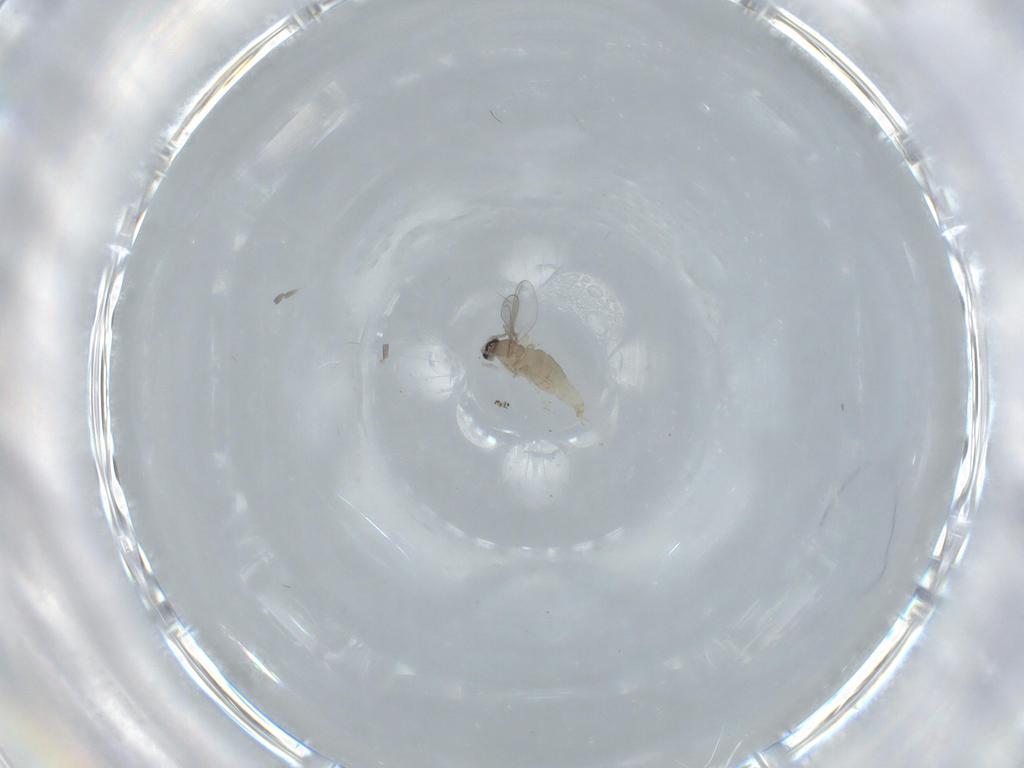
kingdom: Animalia
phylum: Arthropoda
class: Insecta
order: Diptera
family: Cecidomyiidae
